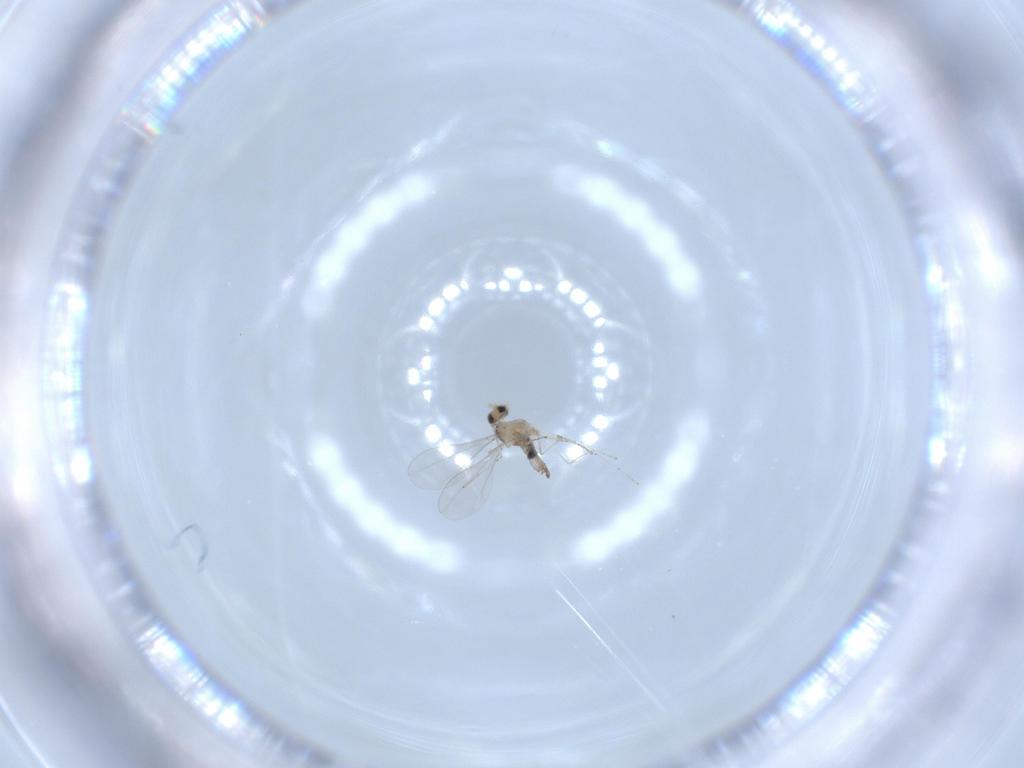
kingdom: Animalia
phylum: Arthropoda
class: Insecta
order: Diptera
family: Cecidomyiidae
